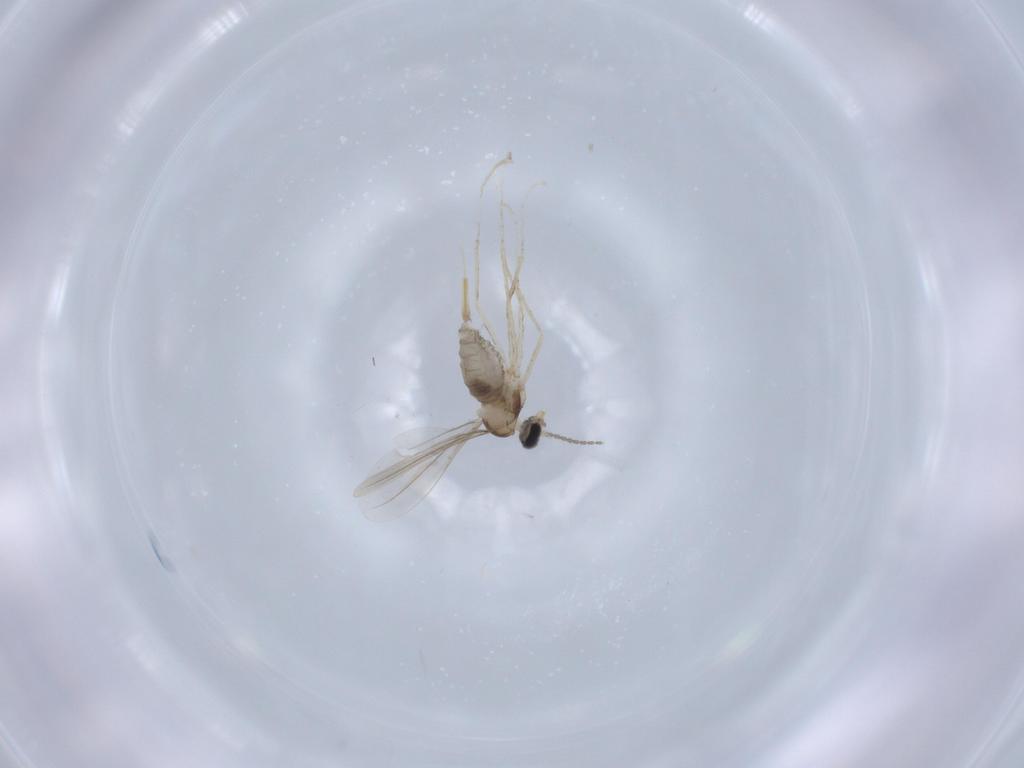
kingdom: Animalia
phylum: Arthropoda
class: Insecta
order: Diptera
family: Cecidomyiidae
